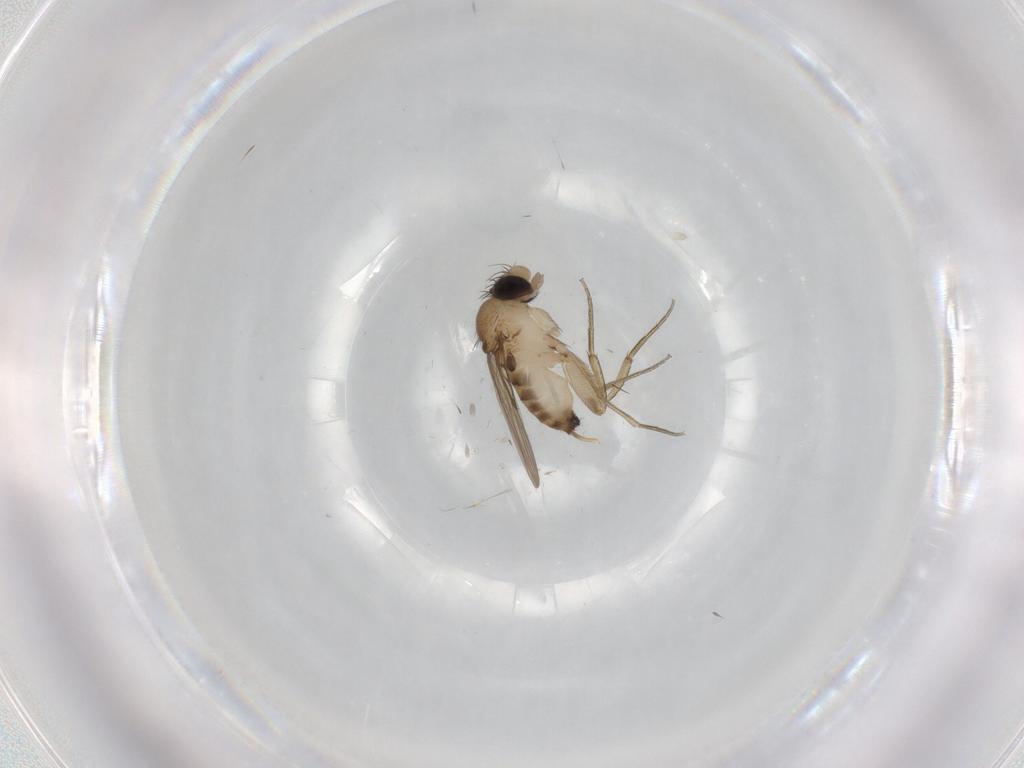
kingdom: Animalia
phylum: Arthropoda
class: Insecta
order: Diptera
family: Phoridae
